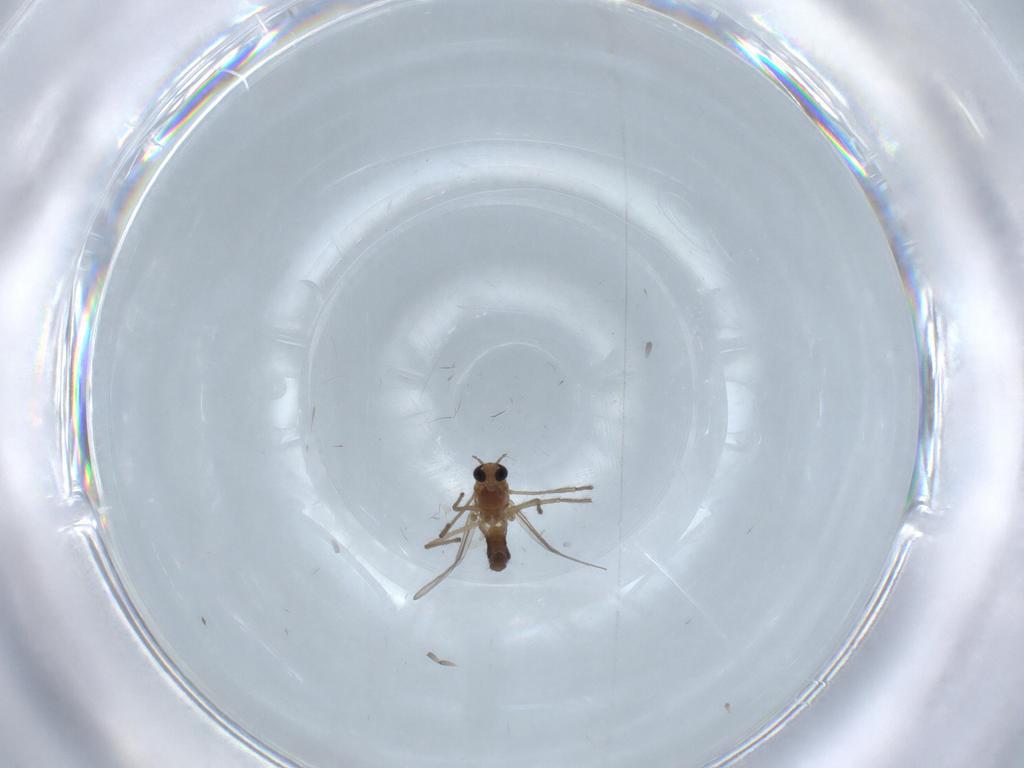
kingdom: Animalia
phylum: Arthropoda
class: Insecta
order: Diptera
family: Chironomidae
